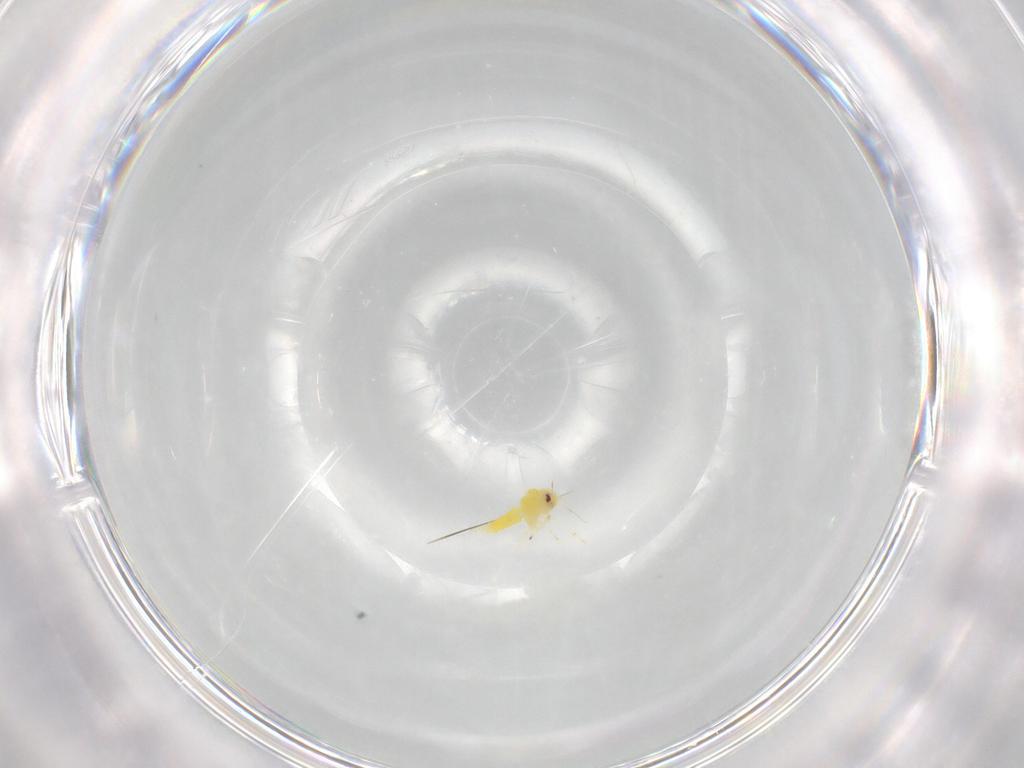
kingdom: Animalia
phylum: Arthropoda
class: Insecta
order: Hemiptera
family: Aleyrodidae
